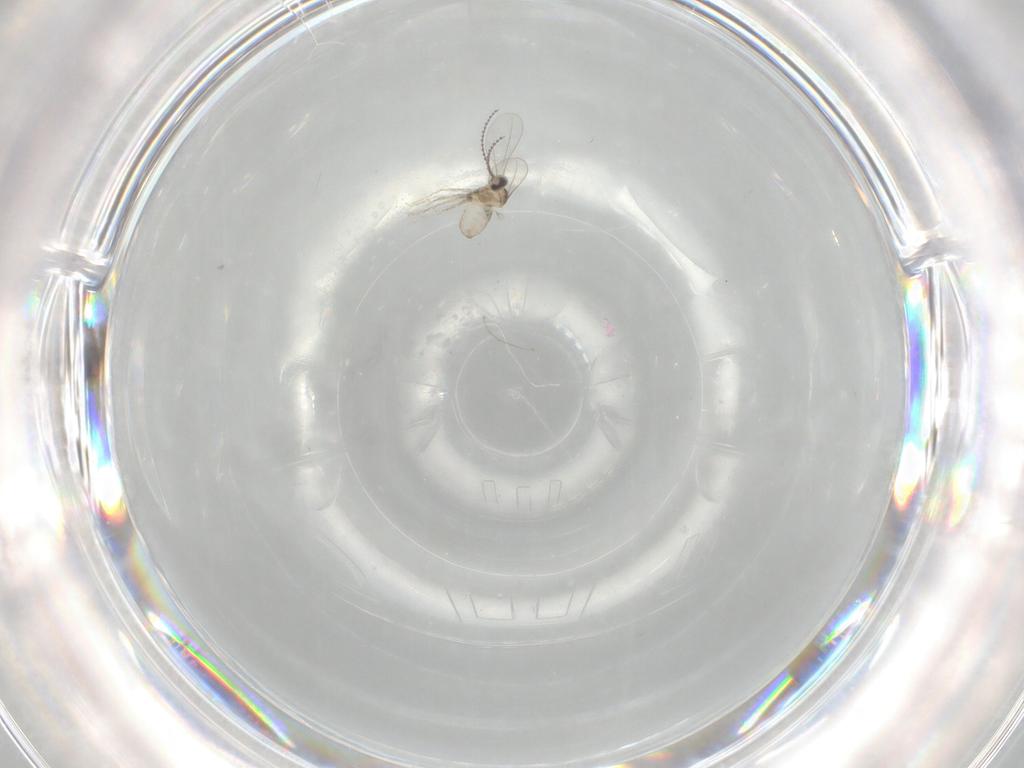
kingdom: Animalia
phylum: Arthropoda
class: Insecta
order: Diptera
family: Cecidomyiidae
